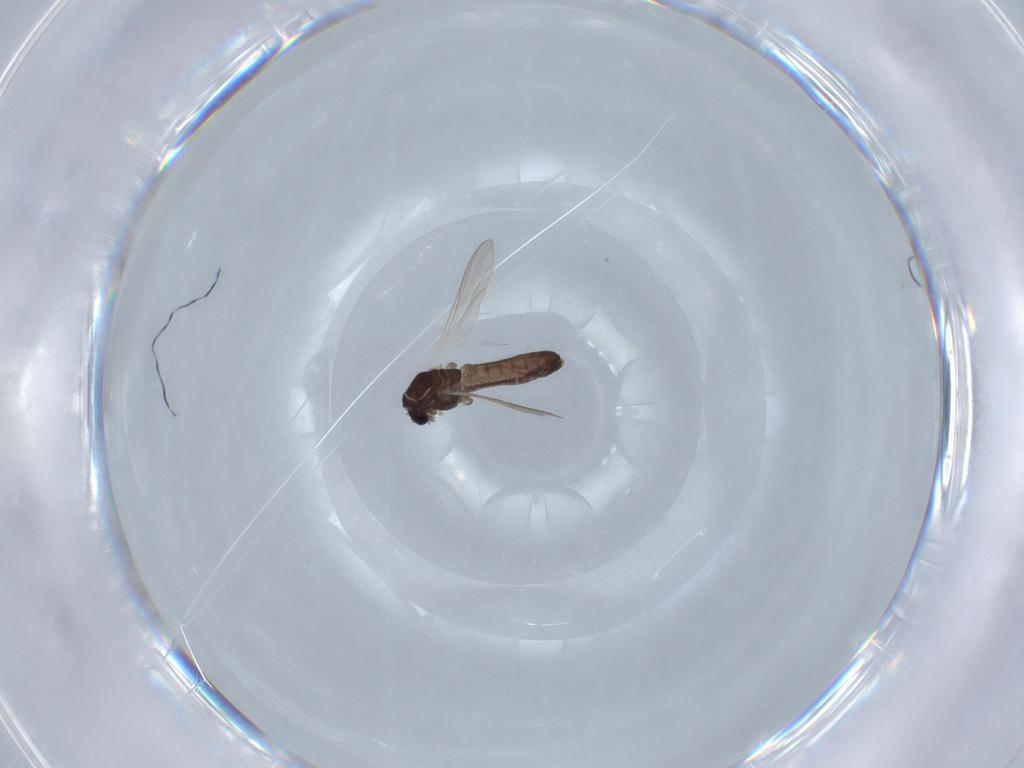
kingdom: Animalia
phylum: Arthropoda
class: Insecta
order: Diptera
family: Chironomidae
